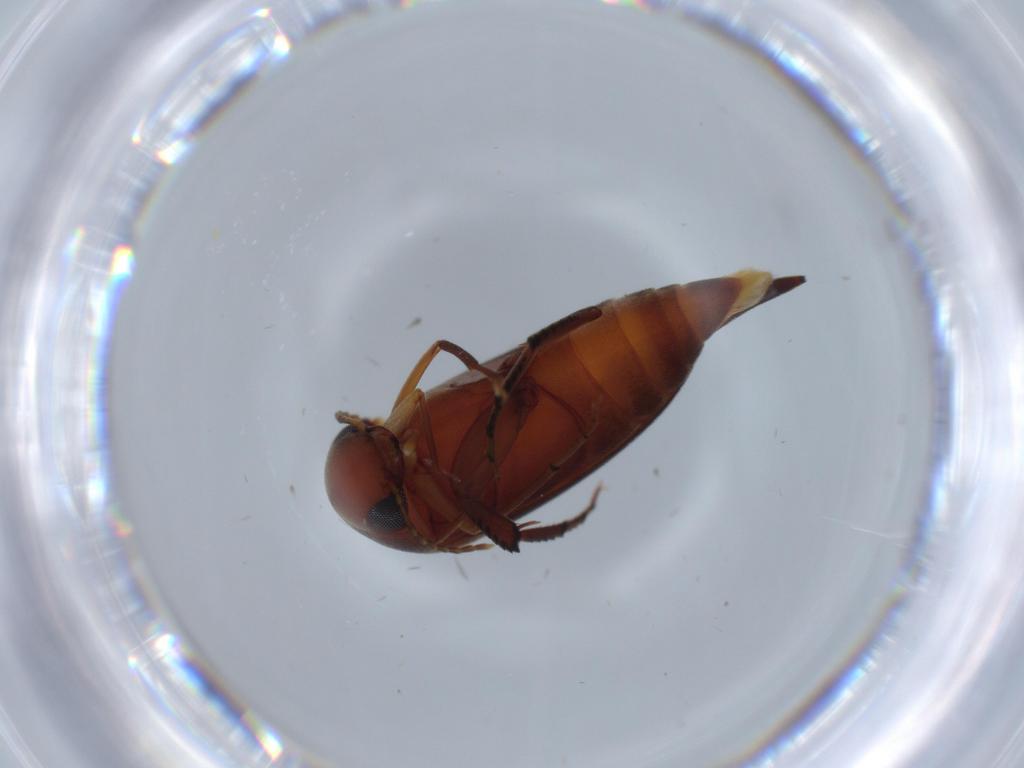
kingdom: Animalia
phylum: Arthropoda
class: Insecta
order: Coleoptera
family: Mordellidae
